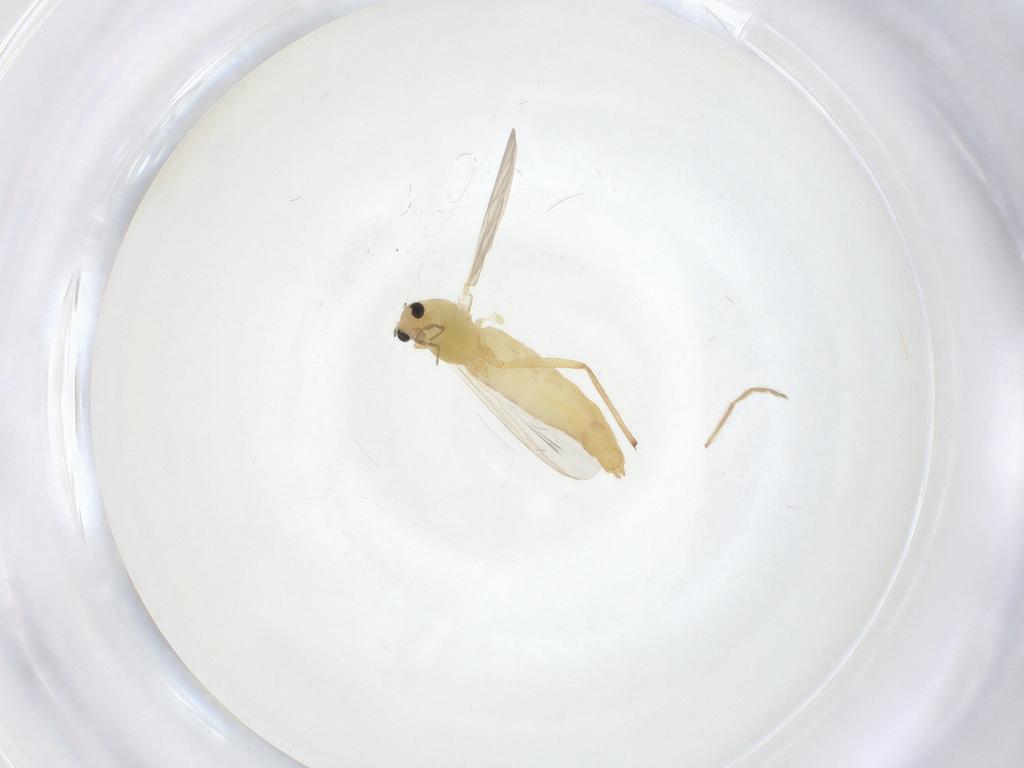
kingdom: Animalia
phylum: Arthropoda
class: Insecta
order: Diptera
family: Chironomidae
